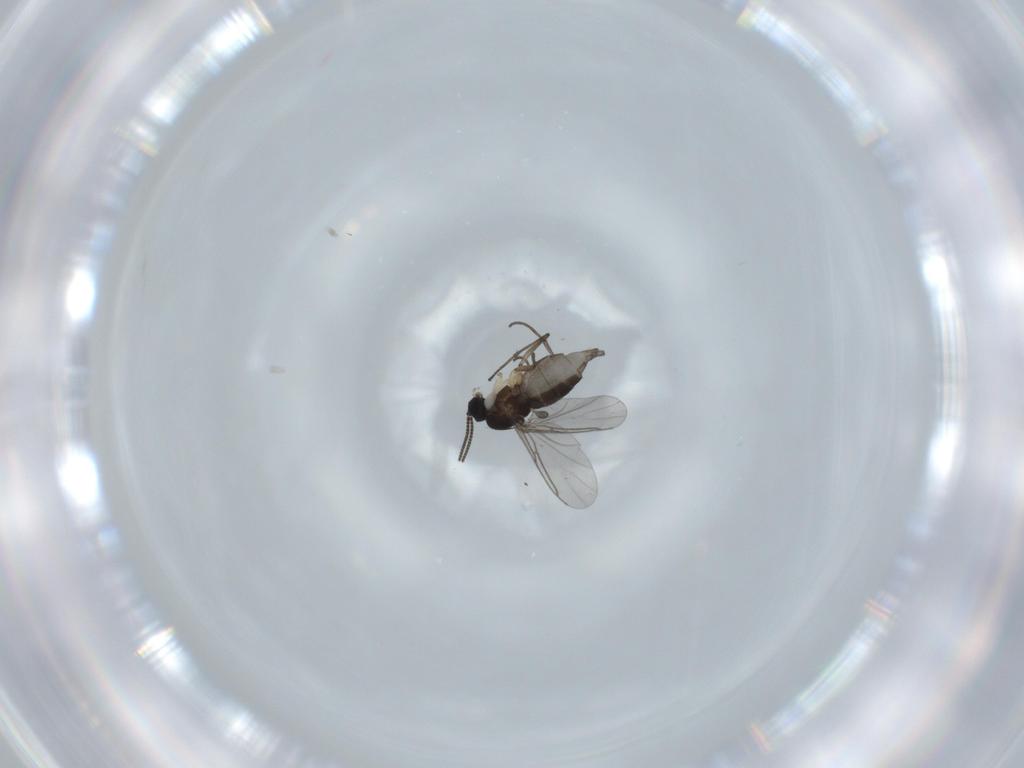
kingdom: Animalia
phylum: Arthropoda
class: Insecta
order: Diptera
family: Sciaridae
